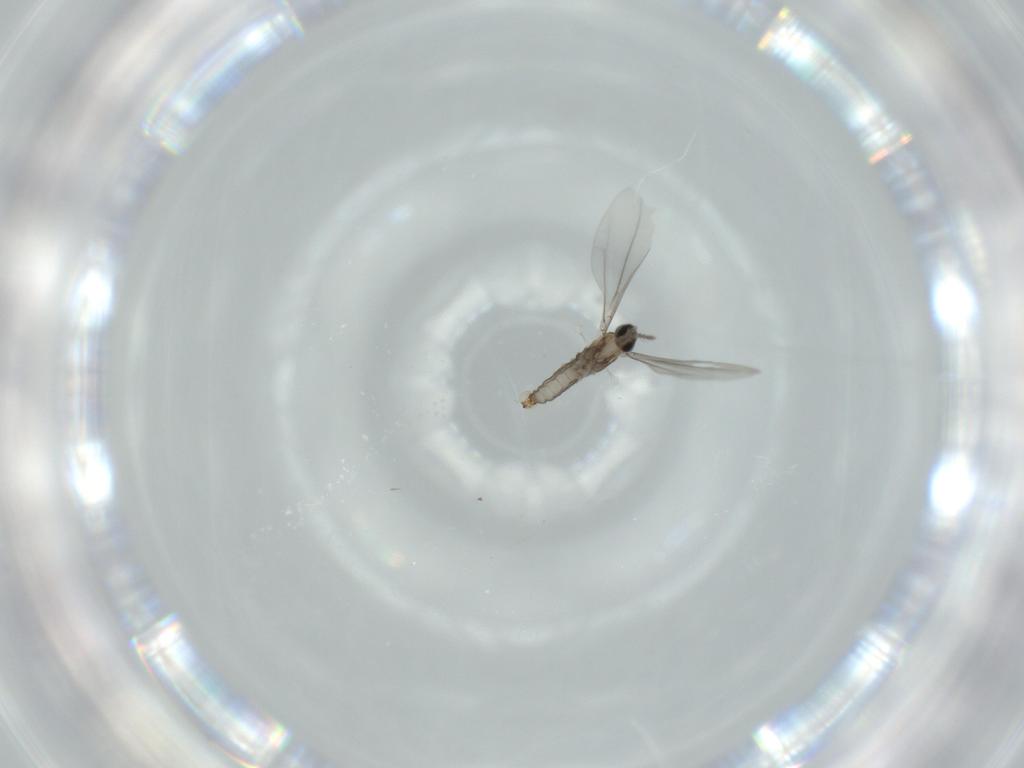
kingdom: Animalia
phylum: Arthropoda
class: Insecta
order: Diptera
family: Cecidomyiidae
